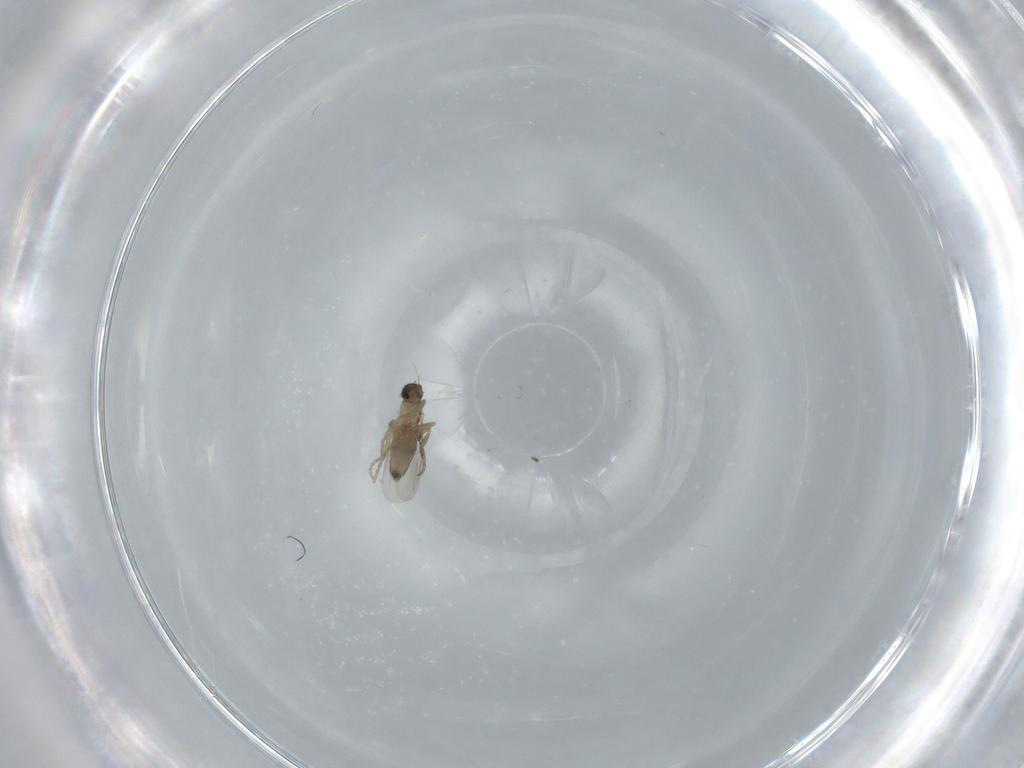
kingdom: Animalia
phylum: Arthropoda
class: Insecta
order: Diptera
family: Phoridae
